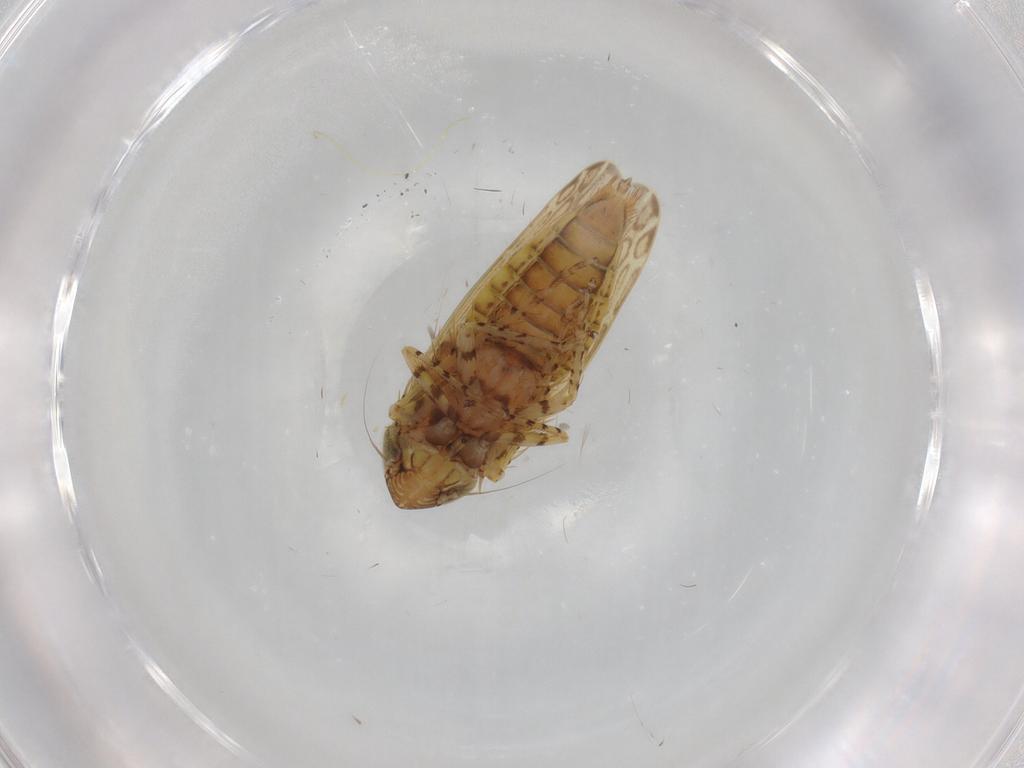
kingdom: Animalia
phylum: Arthropoda
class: Insecta
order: Hemiptera
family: Cicadellidae
